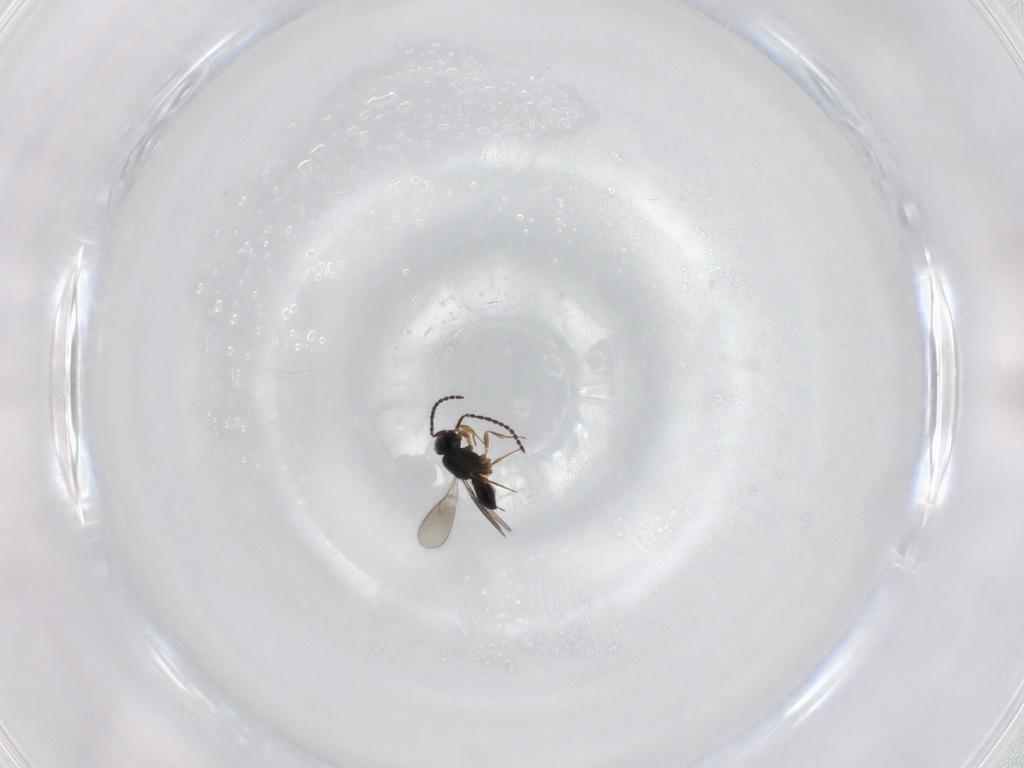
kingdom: Animalia
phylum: Arthropoda
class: Insecta
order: Hymenoptera
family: Scelionidae
